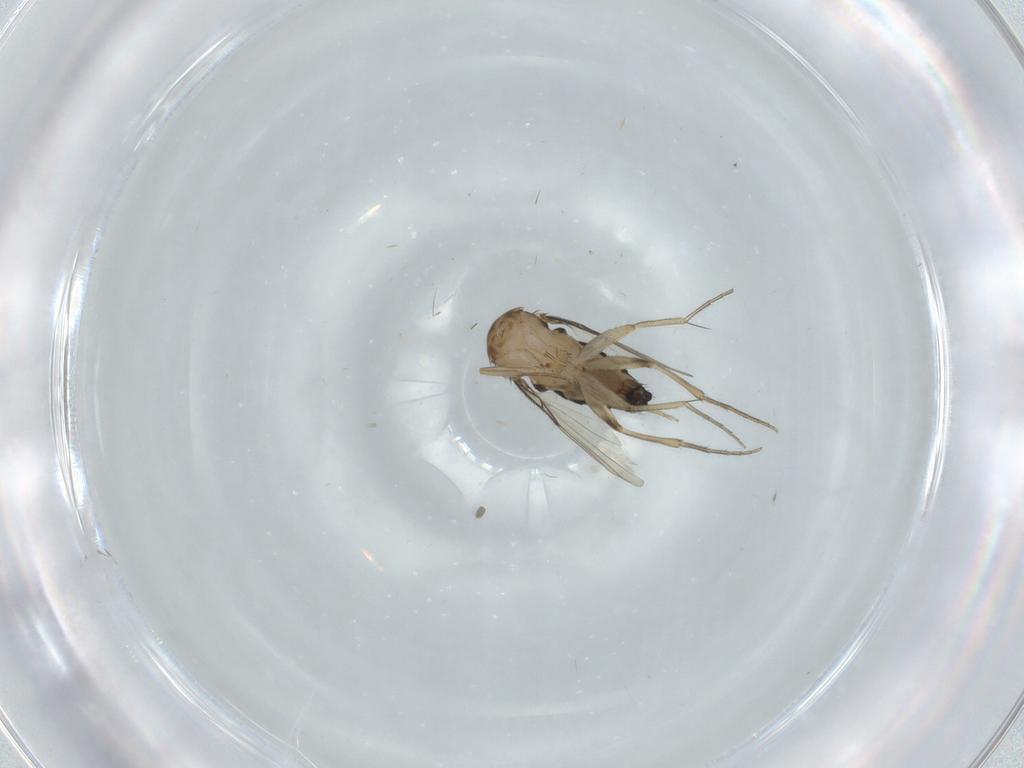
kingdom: Animalia
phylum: Arthropoda
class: Insecta
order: Diptera
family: Phoridae
